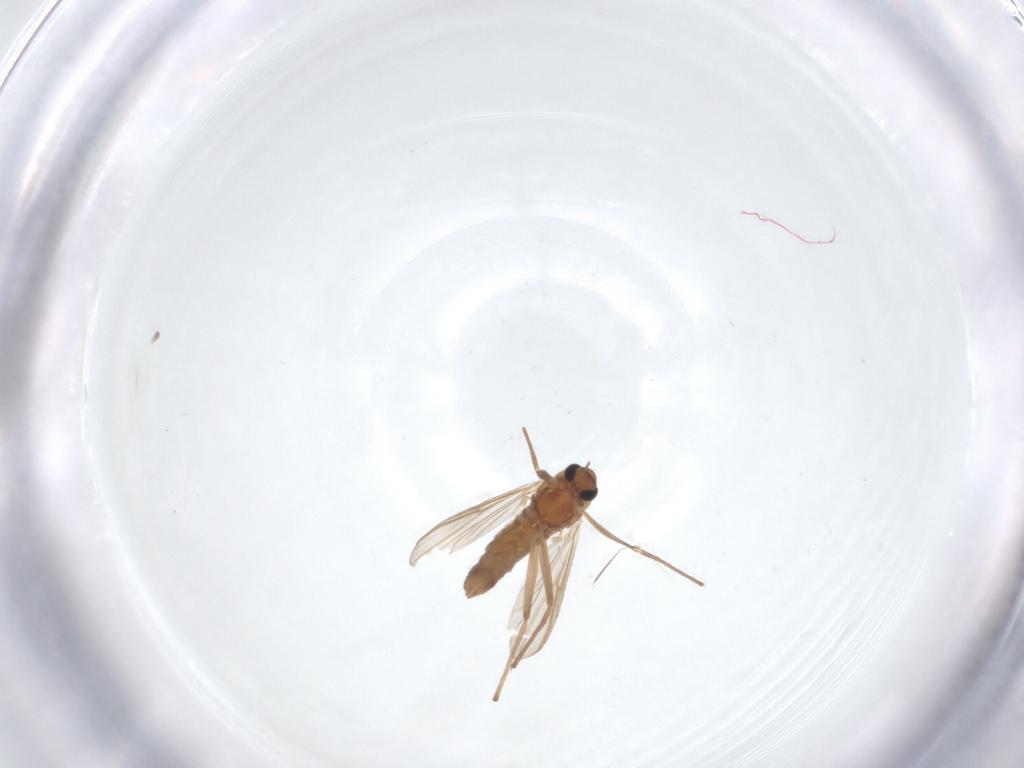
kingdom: Animalia
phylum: Arthropoda
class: Insecta
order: Diptera
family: Chironomidae
